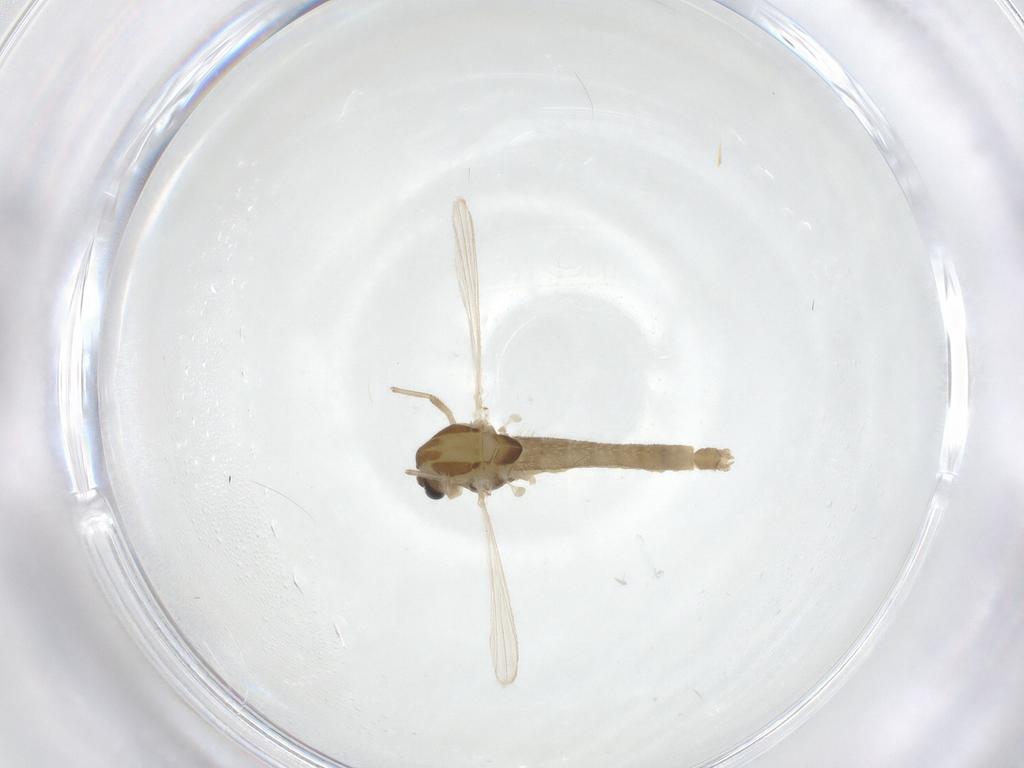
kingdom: Animalia
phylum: Arthropoda
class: Insecta
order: Diptera
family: Chironomidae
